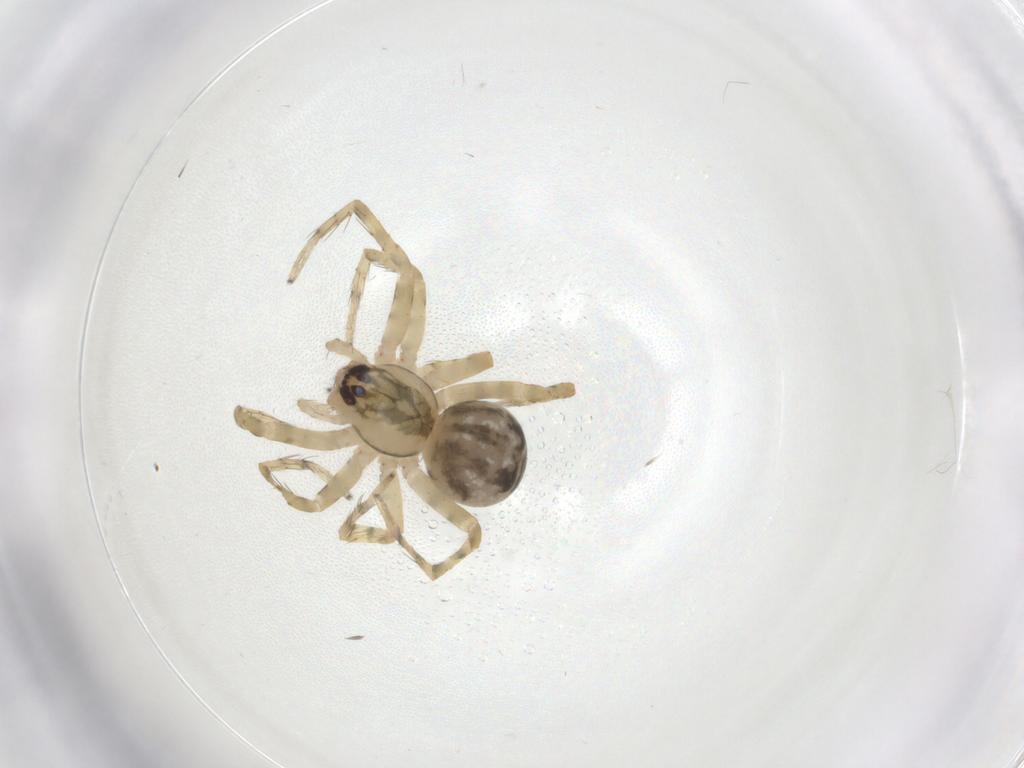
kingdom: Animalia
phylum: Arthropoda
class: Arachnida
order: Araneae
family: Amaurobiidae
